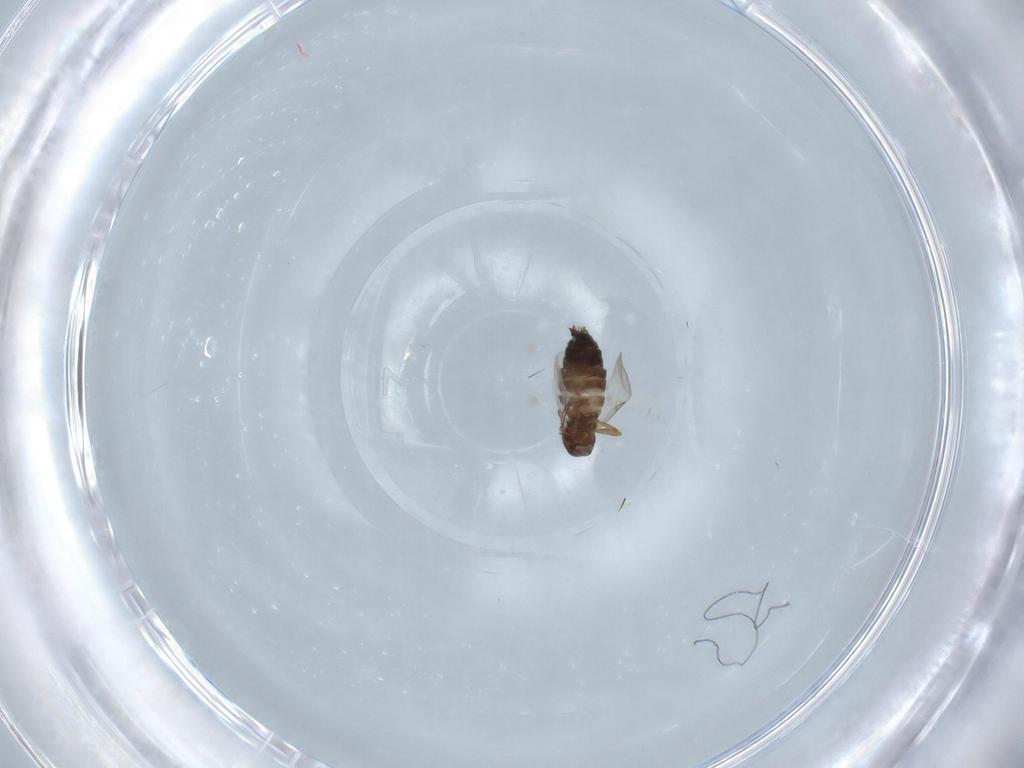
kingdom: Animalia
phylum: Arthropoda
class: Insecta
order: Diptera
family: Scatopsidae
